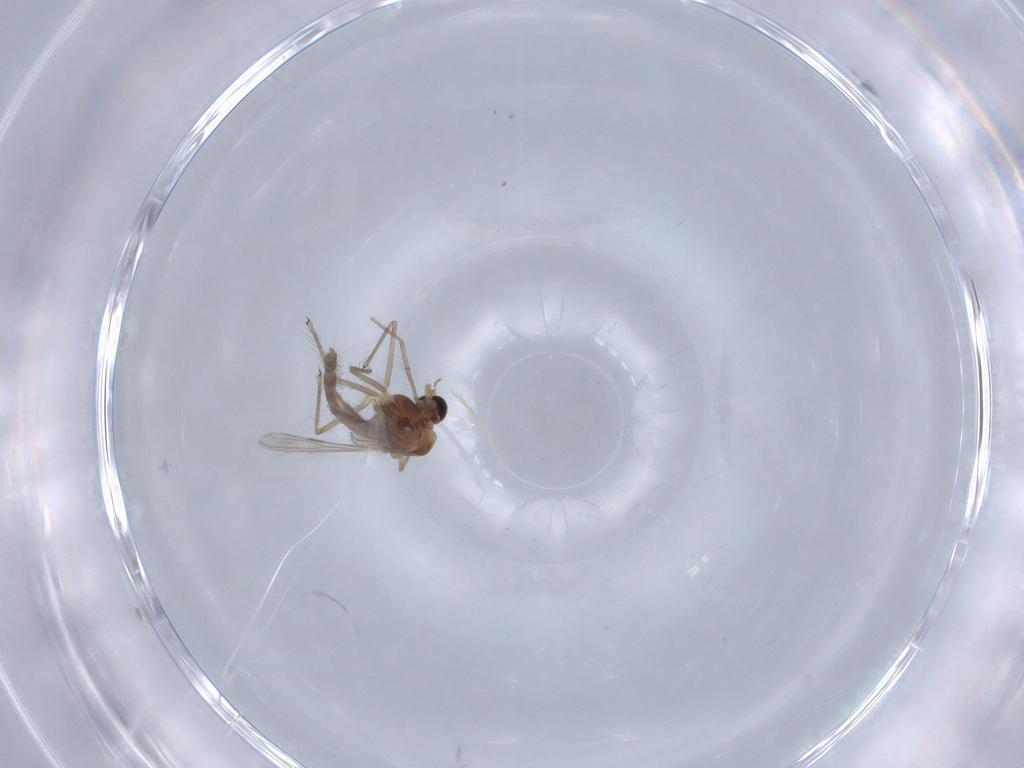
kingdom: Animalia
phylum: Arthropoda
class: Insecta
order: Diptera
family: Chironomidae
